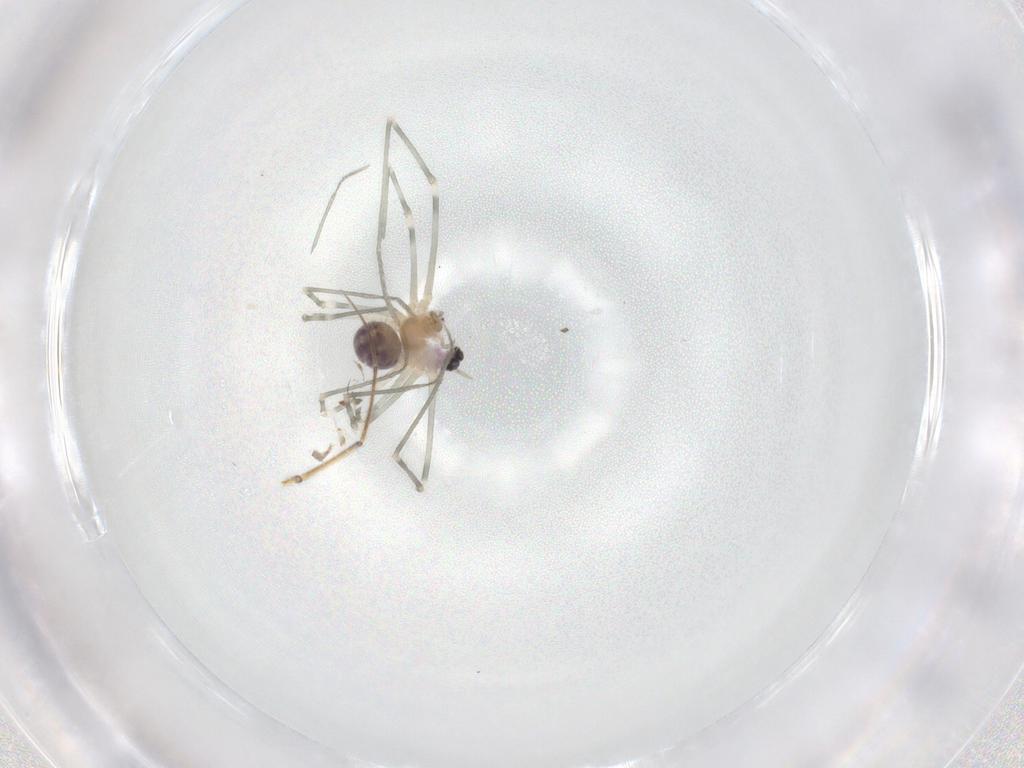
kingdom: Animalia
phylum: Arthropoda
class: Arachnida
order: Araneae
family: Pholcidae
